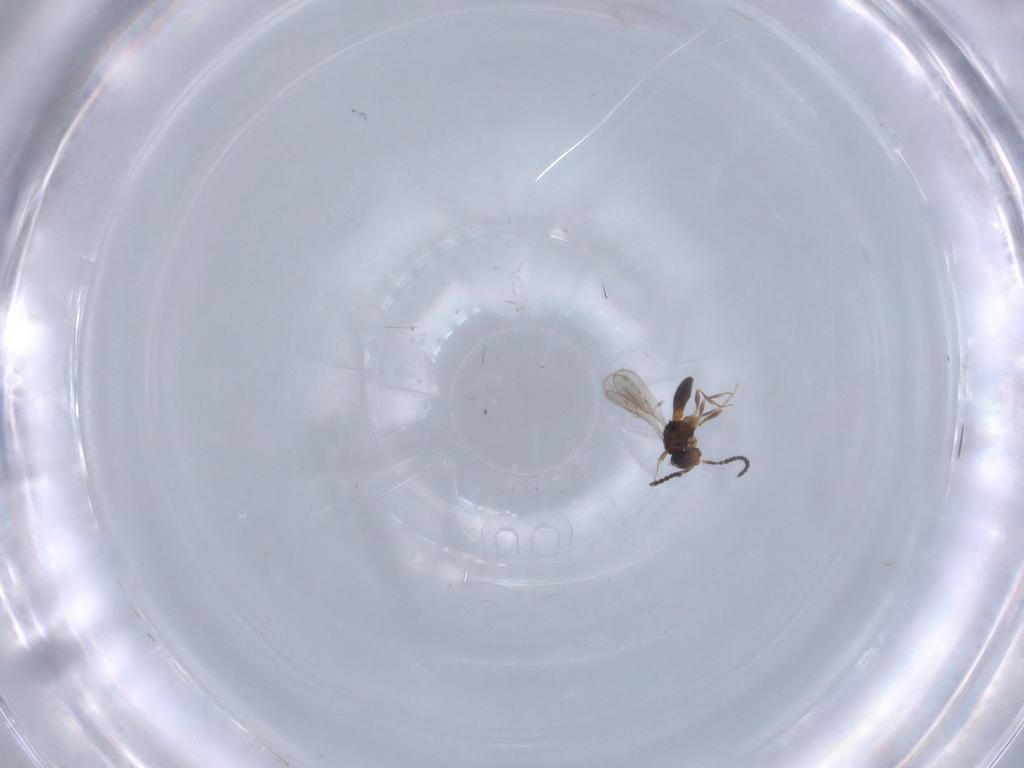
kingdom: Animalia
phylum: Arthropoda
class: Insecta
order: Hymenoptera
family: Scelionidae
